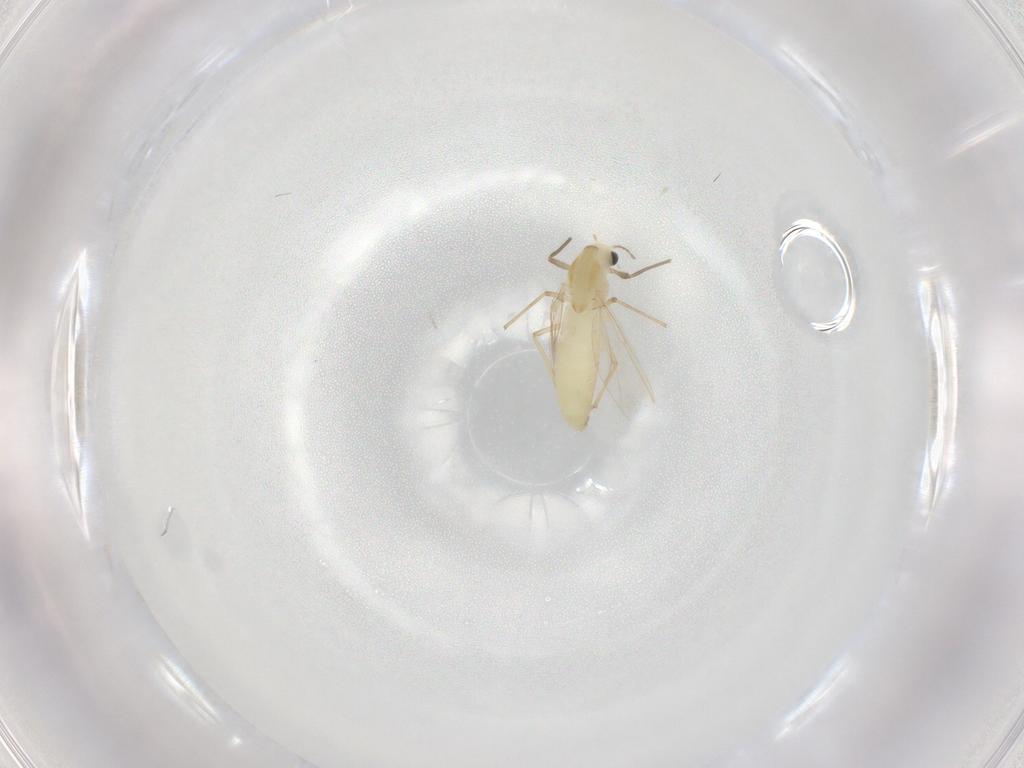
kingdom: Animalia
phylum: Arthropoda
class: Insecta
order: Diptera
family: Chironomidae
